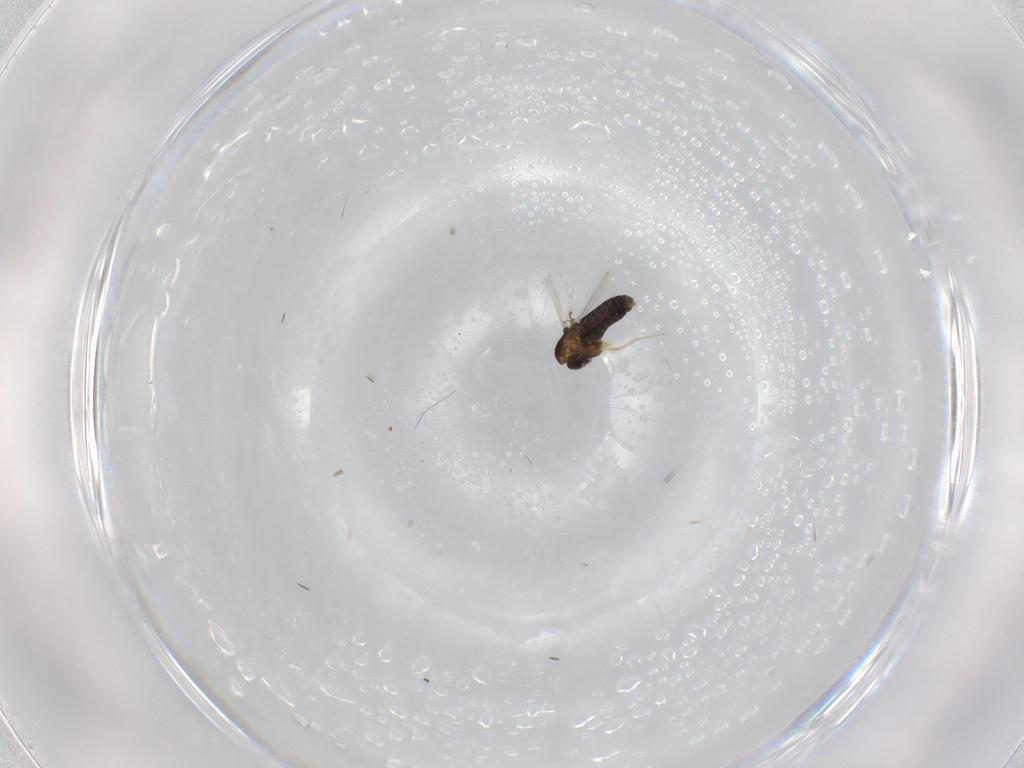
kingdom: Animalia
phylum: Arthropoda
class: Insecta
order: Diptera
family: Chironomidae
